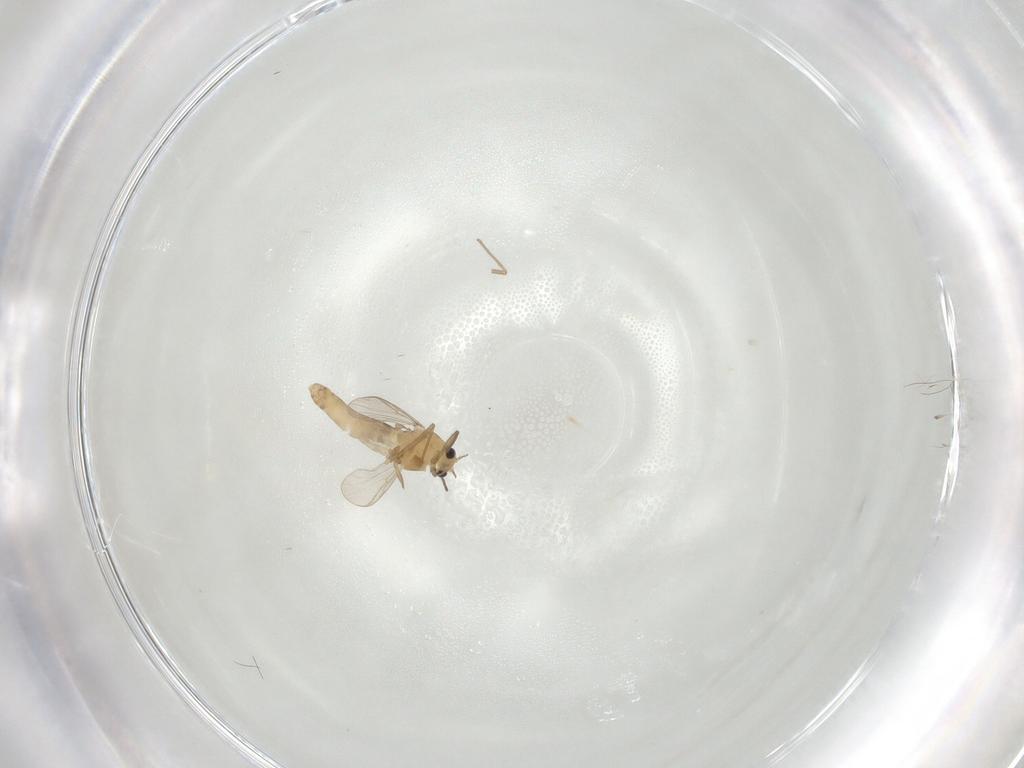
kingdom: Animalia
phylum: Arthropoda
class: Insecta
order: Diptera
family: Chironomidae
